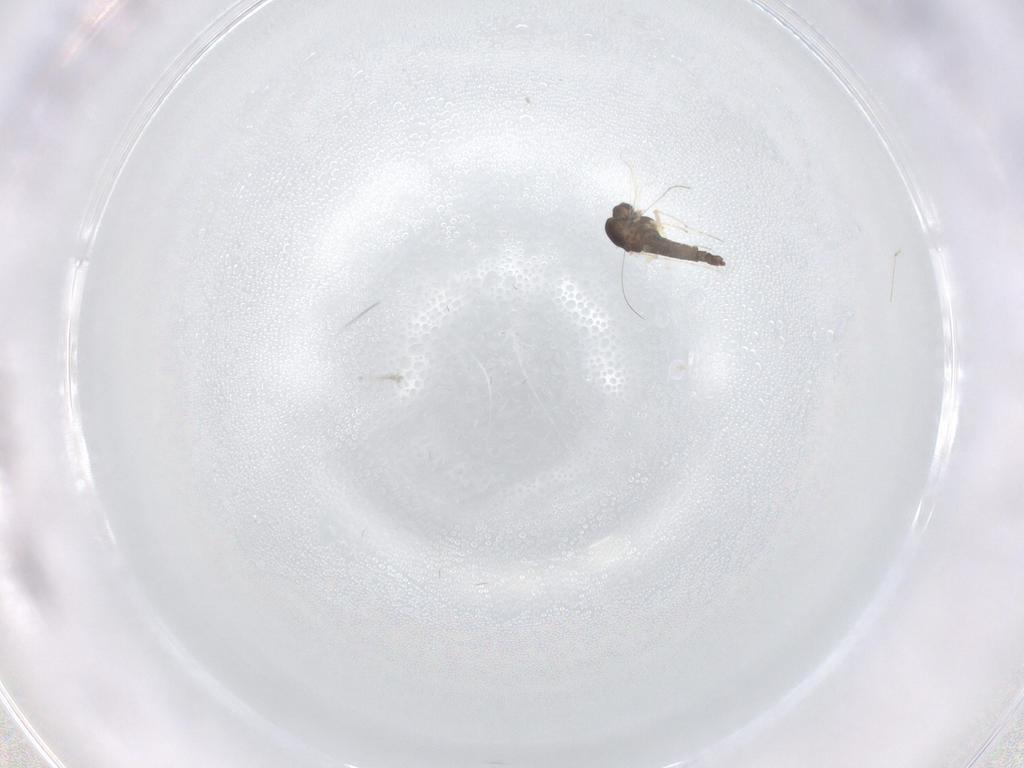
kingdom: Animalia
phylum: Arthropoda
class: Insecta
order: Diptera
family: Chironomidae
